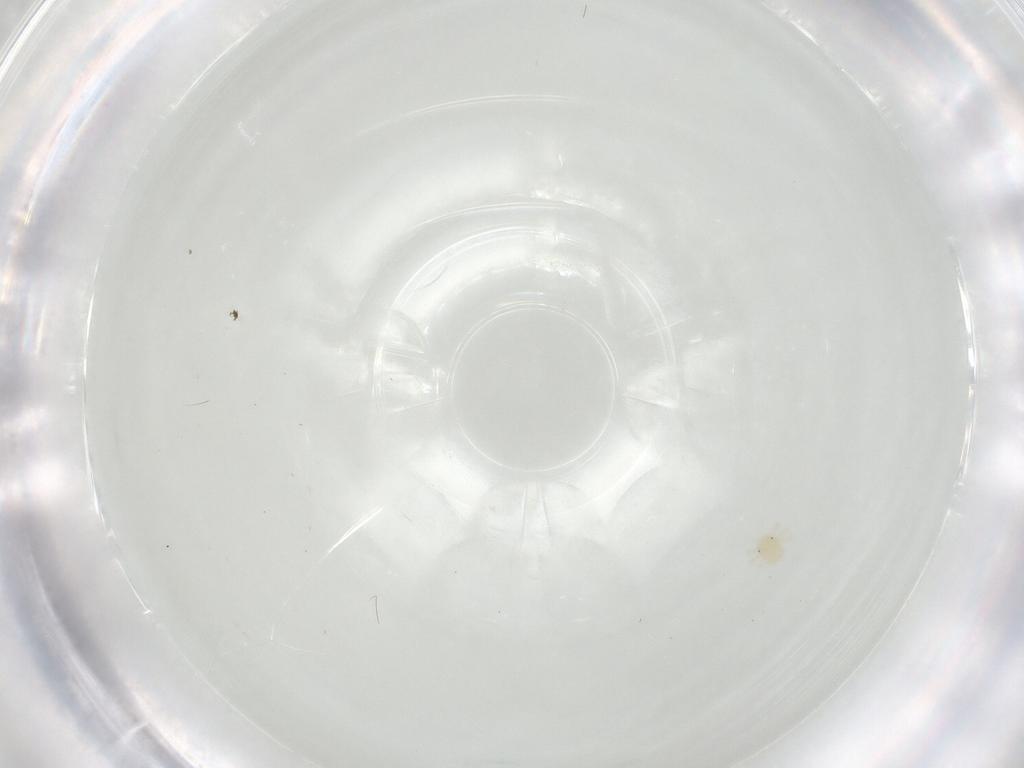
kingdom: Animalia
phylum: Arthropoda
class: Arachnida
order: Trombidiformes
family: Anystidae
